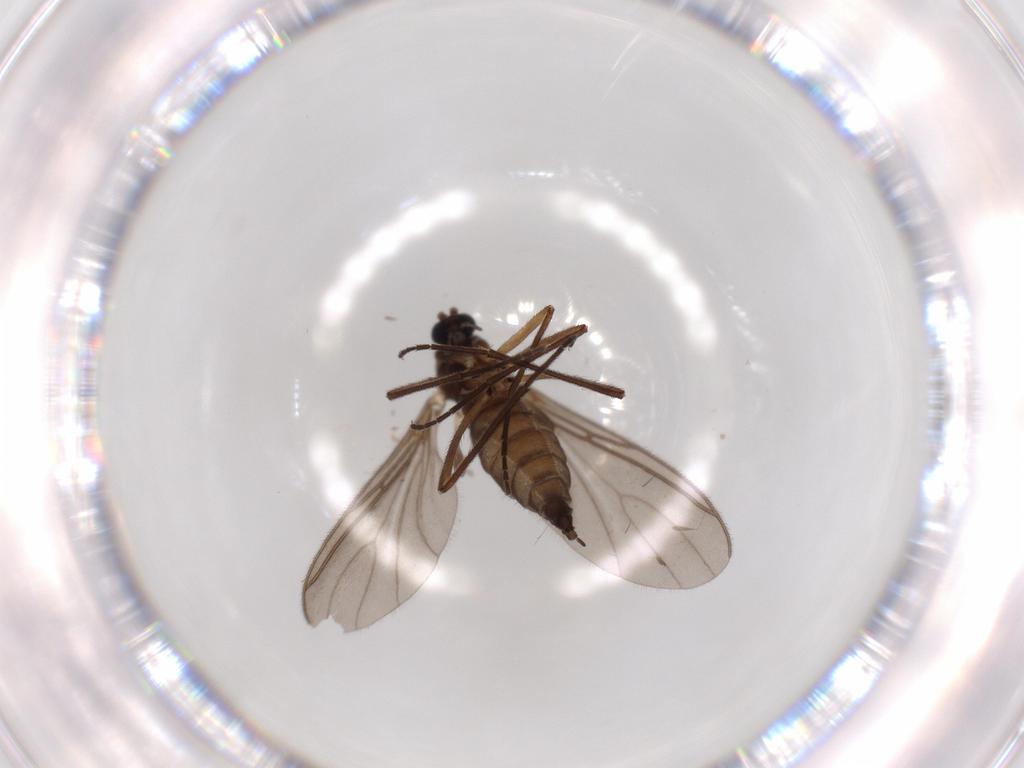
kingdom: Animalia
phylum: Arthropoda
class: Insecta
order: Diptera
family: Sciaridae
